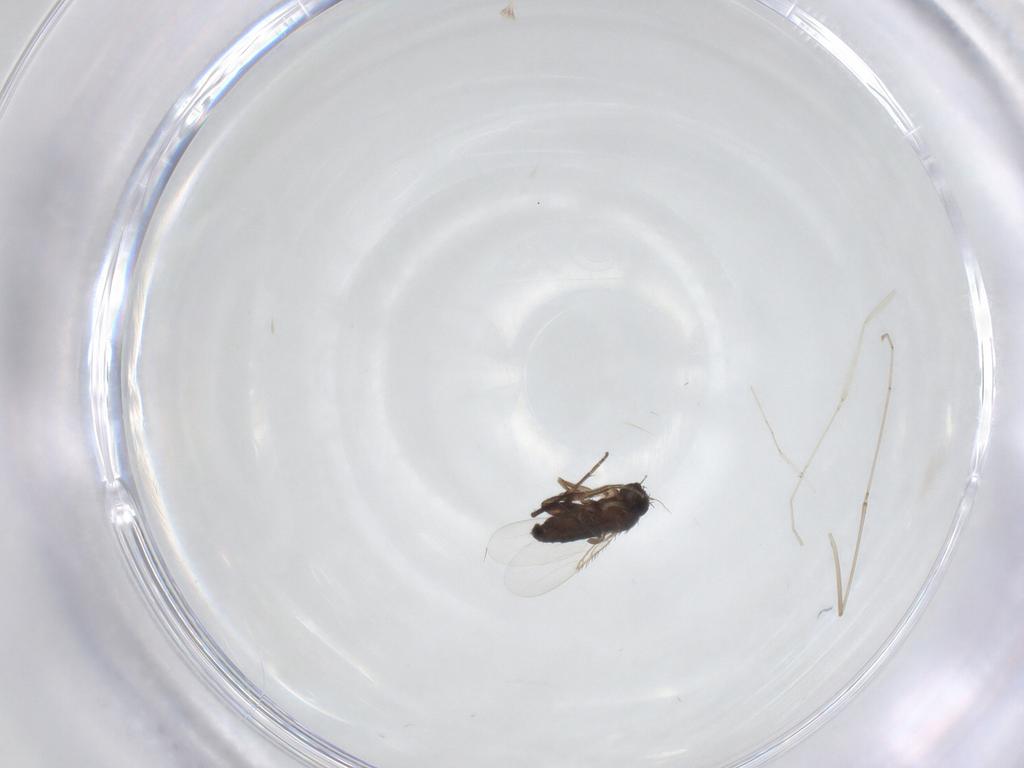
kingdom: Animalia
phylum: Arthropoda
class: Insecta
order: Diptera
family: Phoridae
